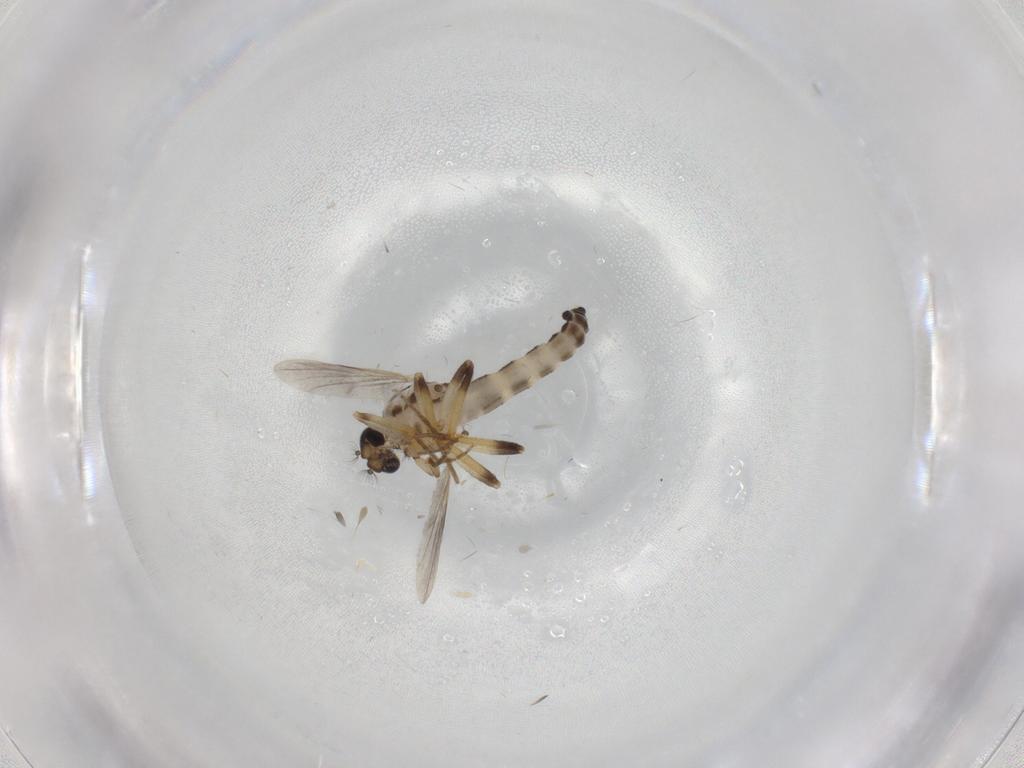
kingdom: Animalia
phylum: Arthropoda
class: Insecta
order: Diptera
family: Ceratopogonidae
